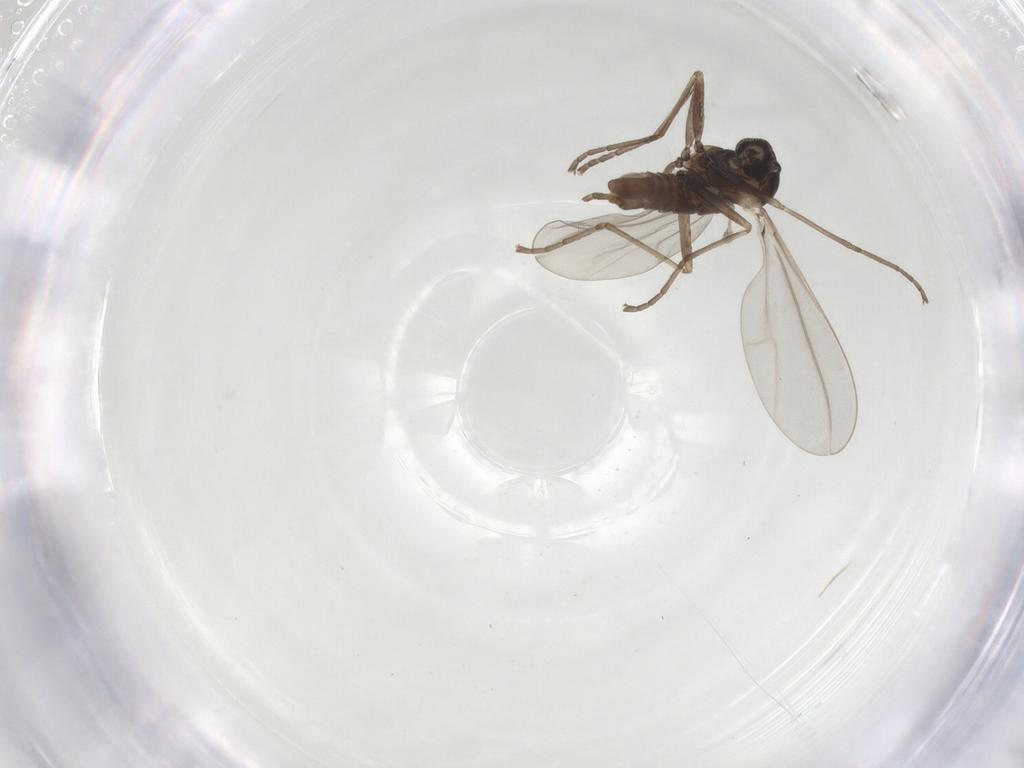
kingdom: Animalia
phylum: Arthropoda
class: Insecta
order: Diptera
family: Cecidomyiidae
